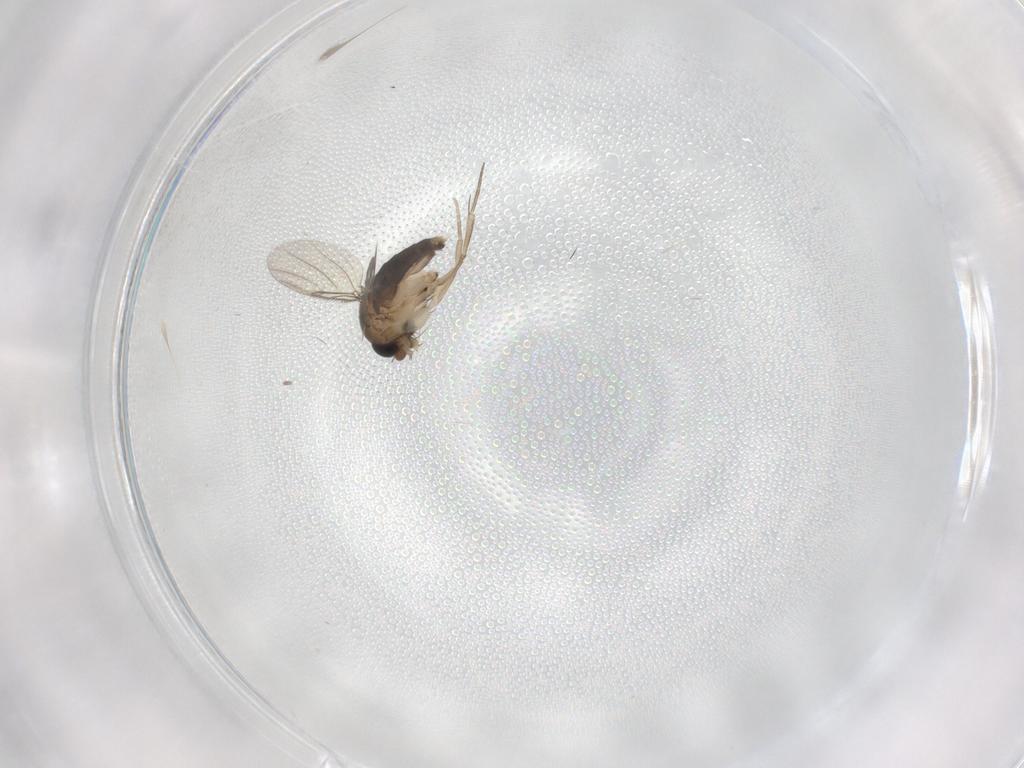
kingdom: Animalia
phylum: Arthropoda
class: Insecta
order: Diptera
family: Phoridae
